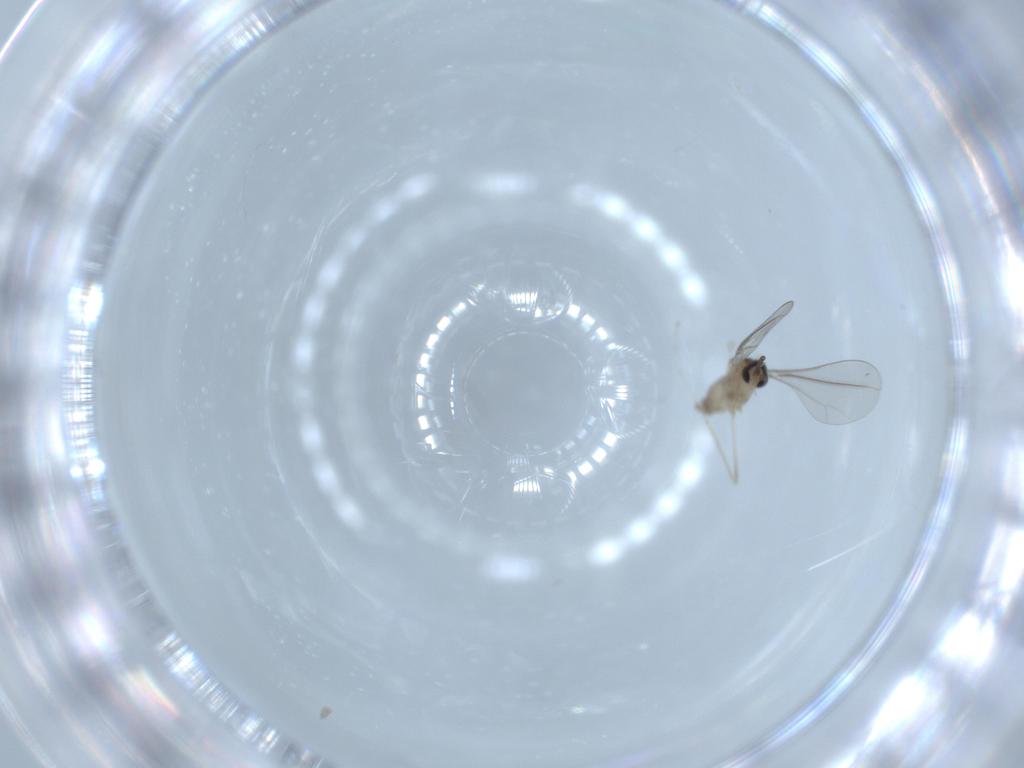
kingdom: Animalia
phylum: Arthropoda
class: Insecta
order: Diptera
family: Cecidomyiidae
